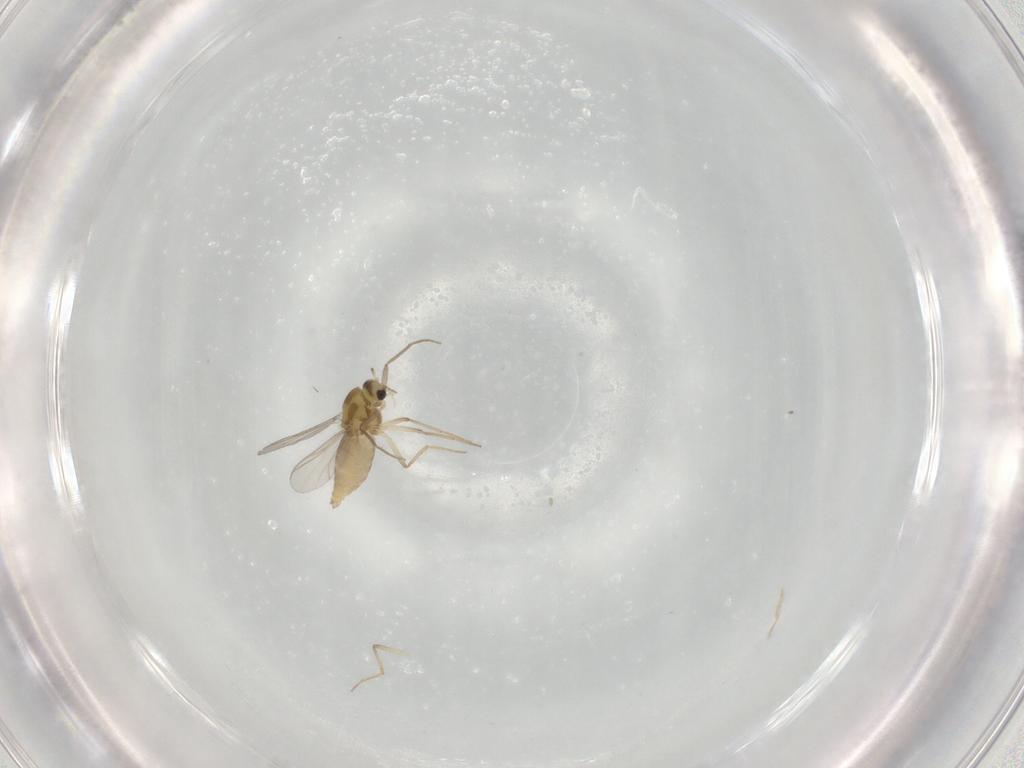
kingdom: Animalia
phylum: Arthropoda
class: Insecta
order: Diptera
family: Chironomidae
